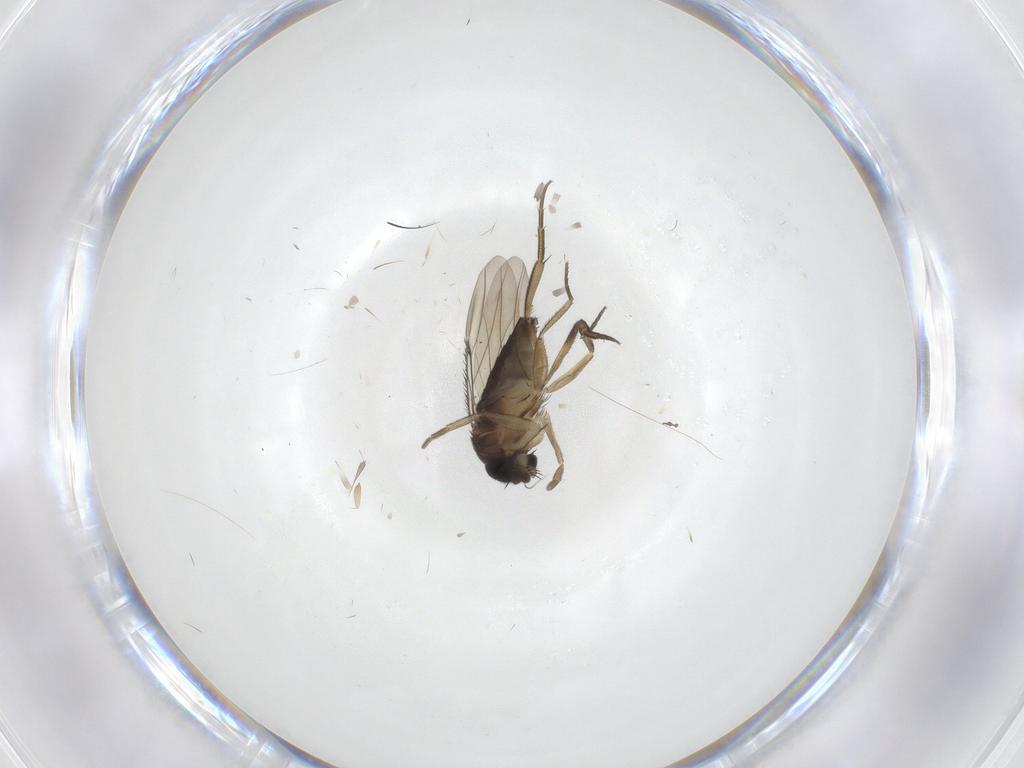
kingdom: Animalia
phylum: Arthropoda
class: Insecta
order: Diptera
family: Phoridae
